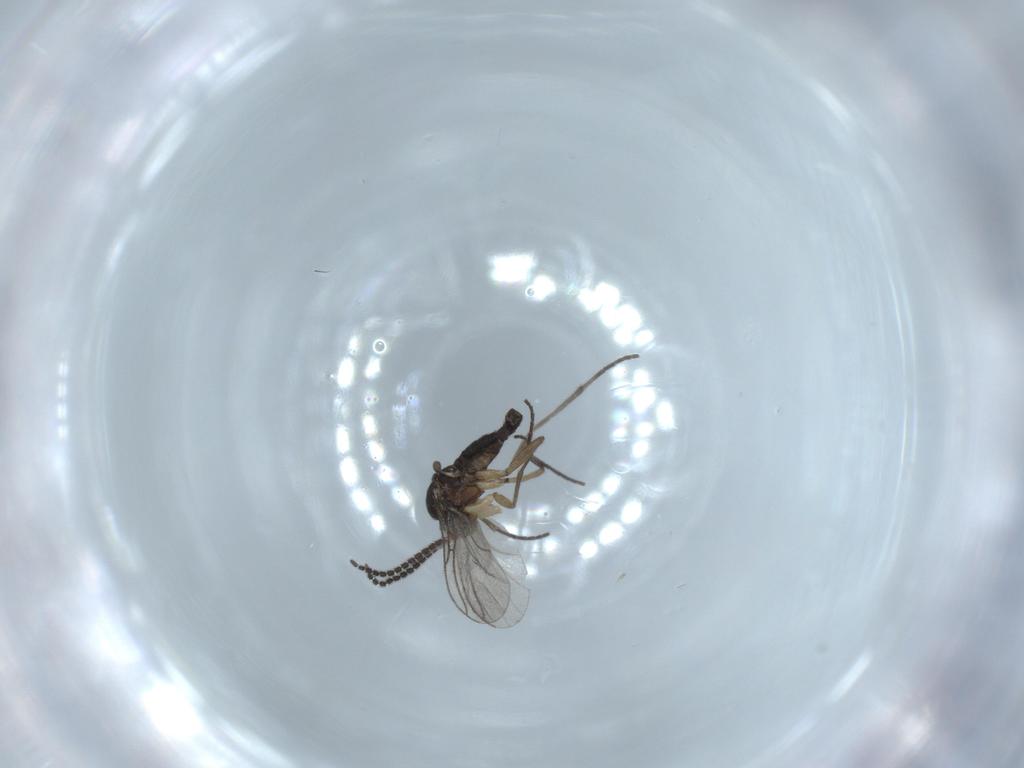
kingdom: Animalia
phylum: Arthropoda
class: Insecta
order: Diptera
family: Sciaridae
